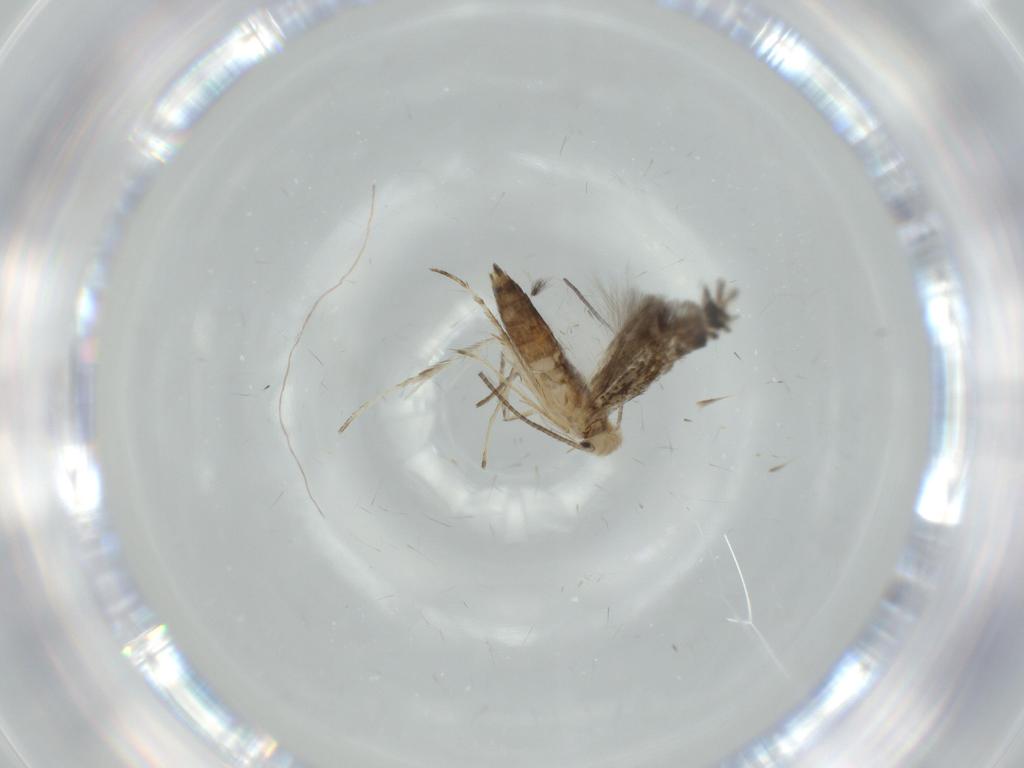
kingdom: Animalia
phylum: Arthropoda
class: Insecta
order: Lepidoptera
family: Gracillariidae
